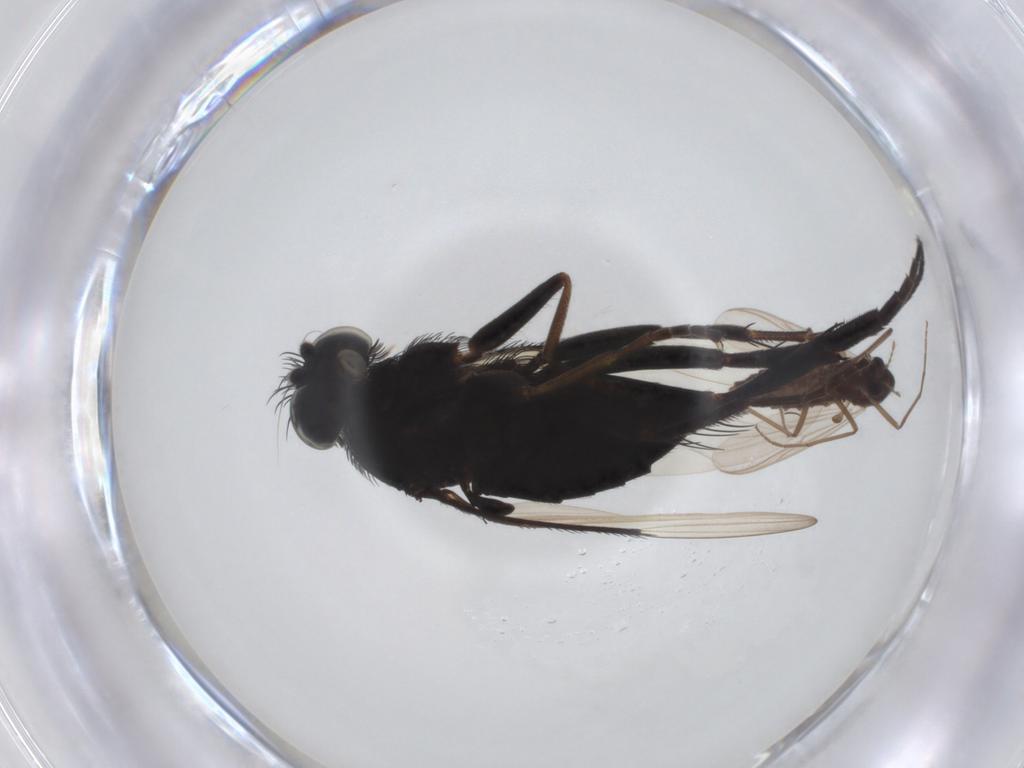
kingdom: Animalia
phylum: Arthropoda
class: Insecta
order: Diptera
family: Chironomidae
